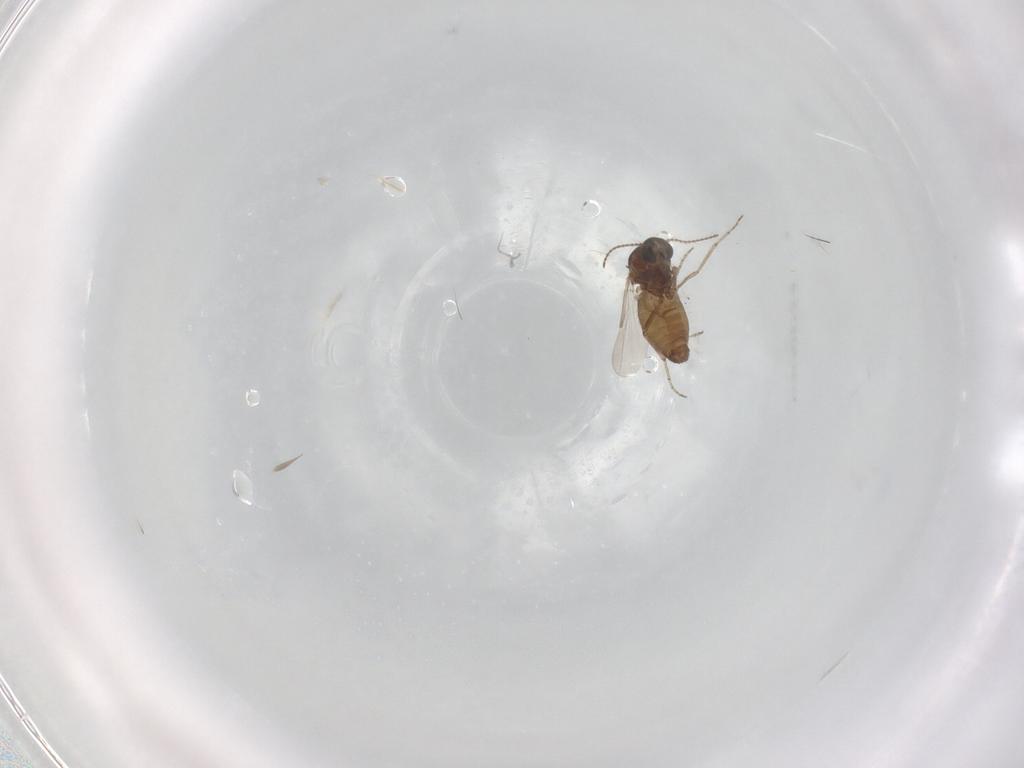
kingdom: Animalia
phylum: Arthropoda
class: Insecta
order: Diptera
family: Ceratopogonidae
